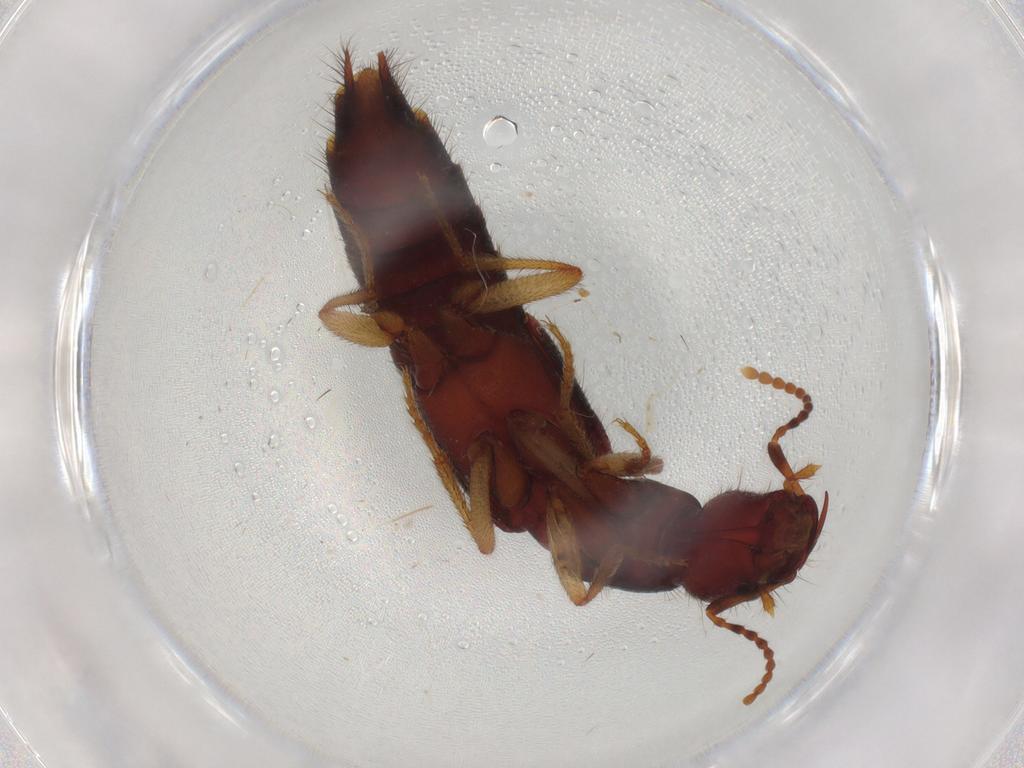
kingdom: Animalia
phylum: Arthropoda
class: Insecta
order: Coleoptera
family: Staphylinidae
